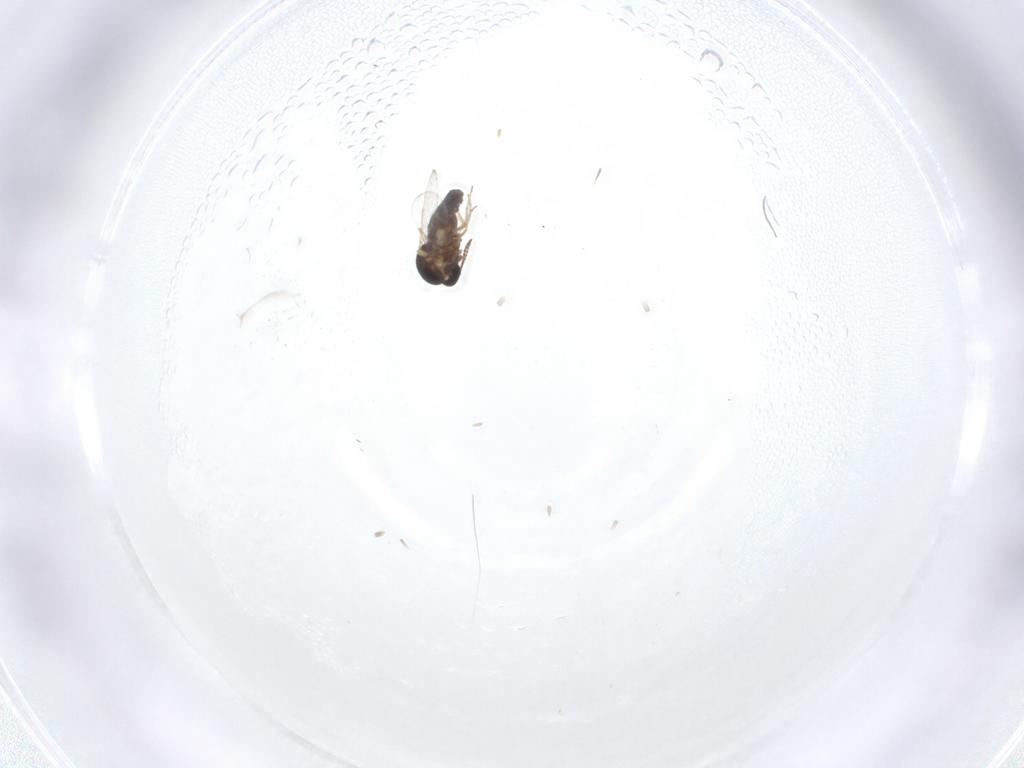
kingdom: Animalia
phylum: Arthropoda
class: Insecta
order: Diptera
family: Ceratopogonidae
